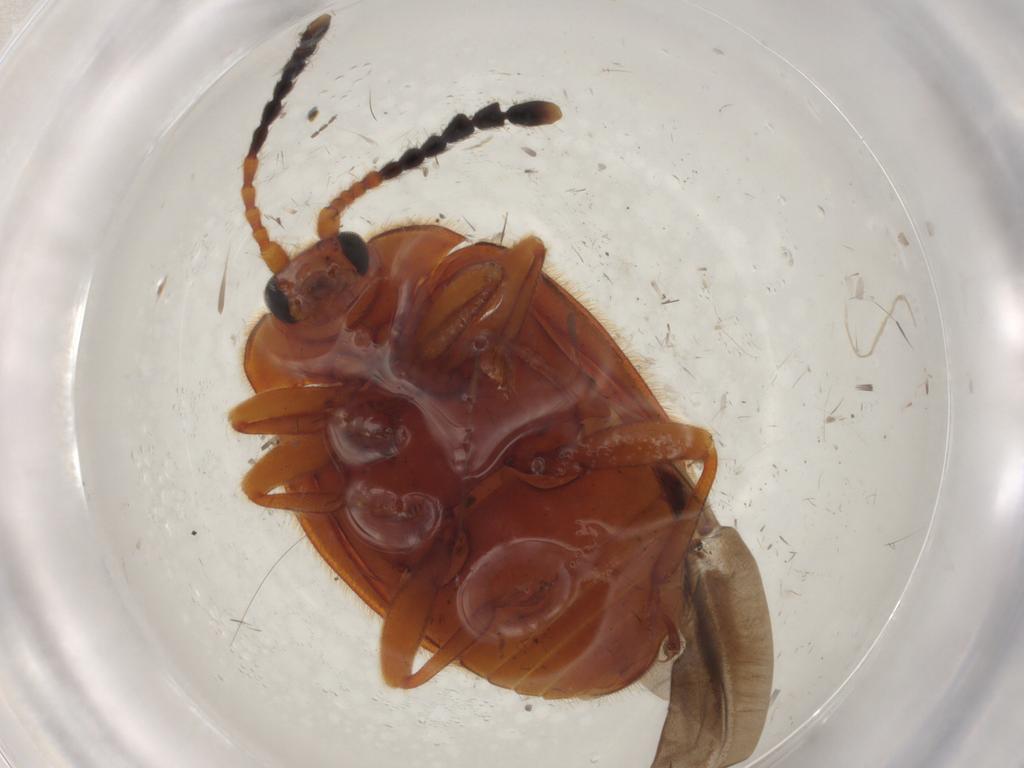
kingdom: Animalia
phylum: Arthropoda
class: Insecta
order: Coleoptera
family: Endomychidae
